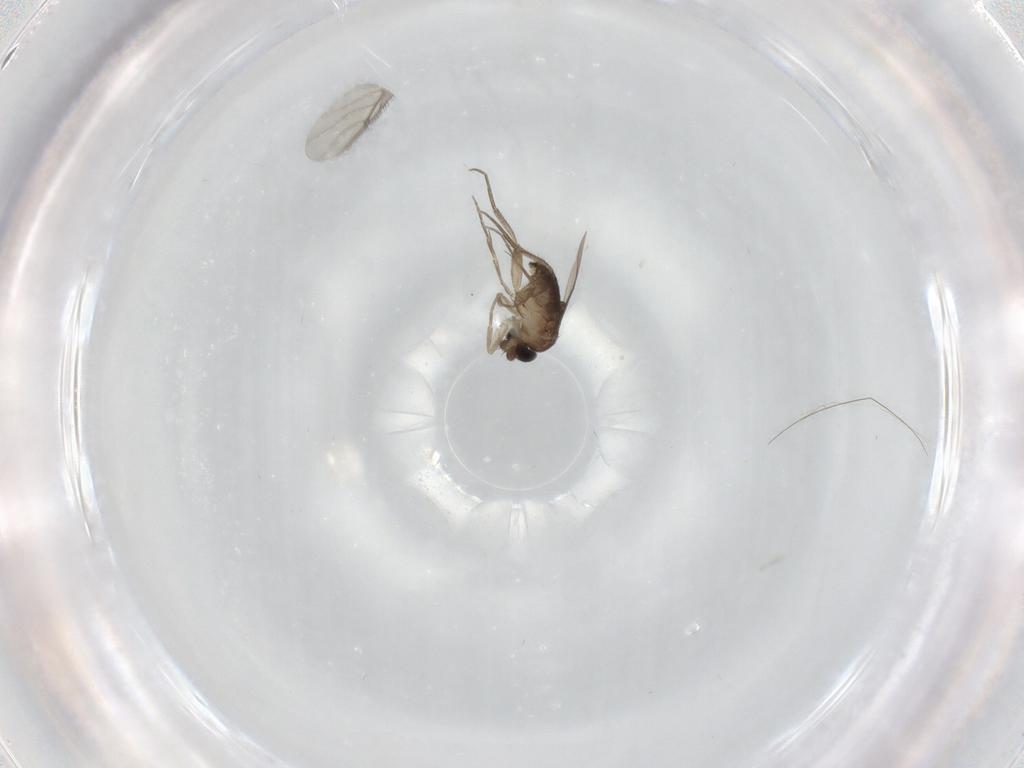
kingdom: Animalia
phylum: Arthropoda
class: Insecta
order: Diptera
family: Phoridae
